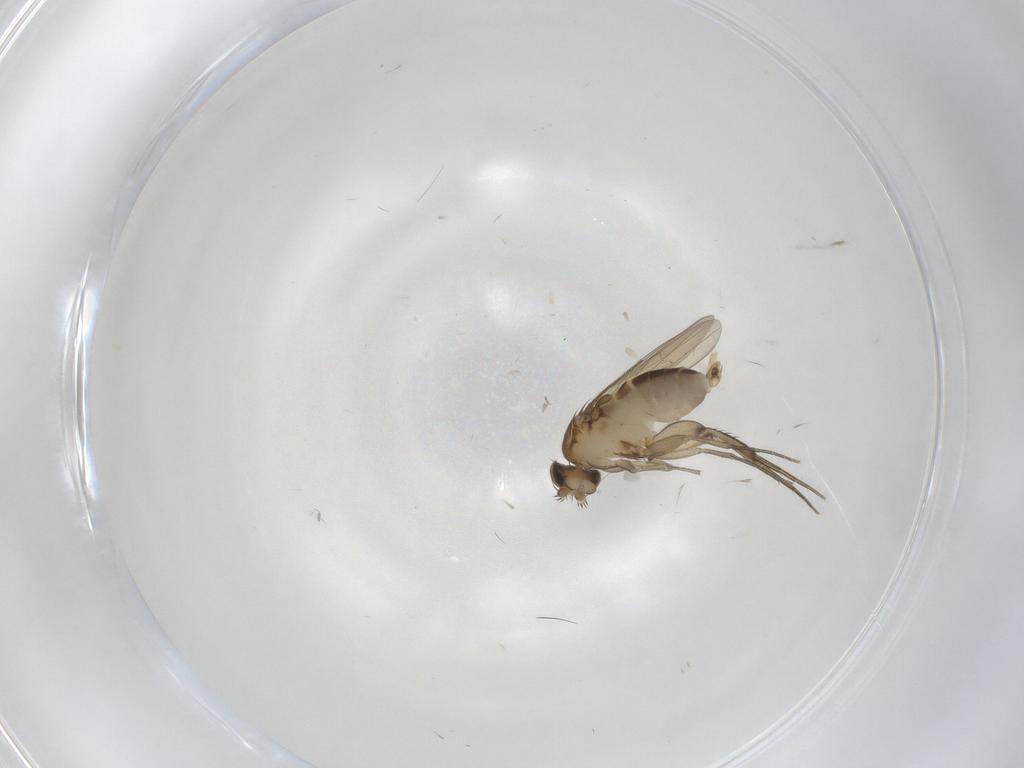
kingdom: Animalia
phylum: Arthropoda
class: Insecta
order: Diptera
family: Phoridae
